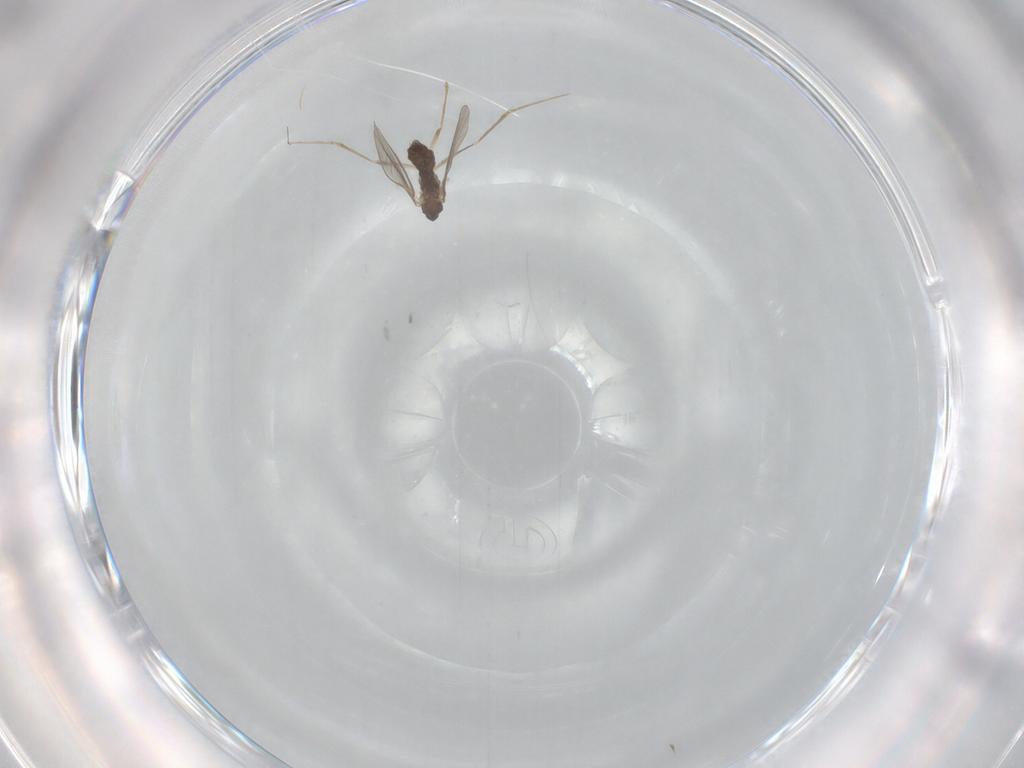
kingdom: Animalia
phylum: Arthropoda
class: Insecta
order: Diptera
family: Cecidomyiidae
